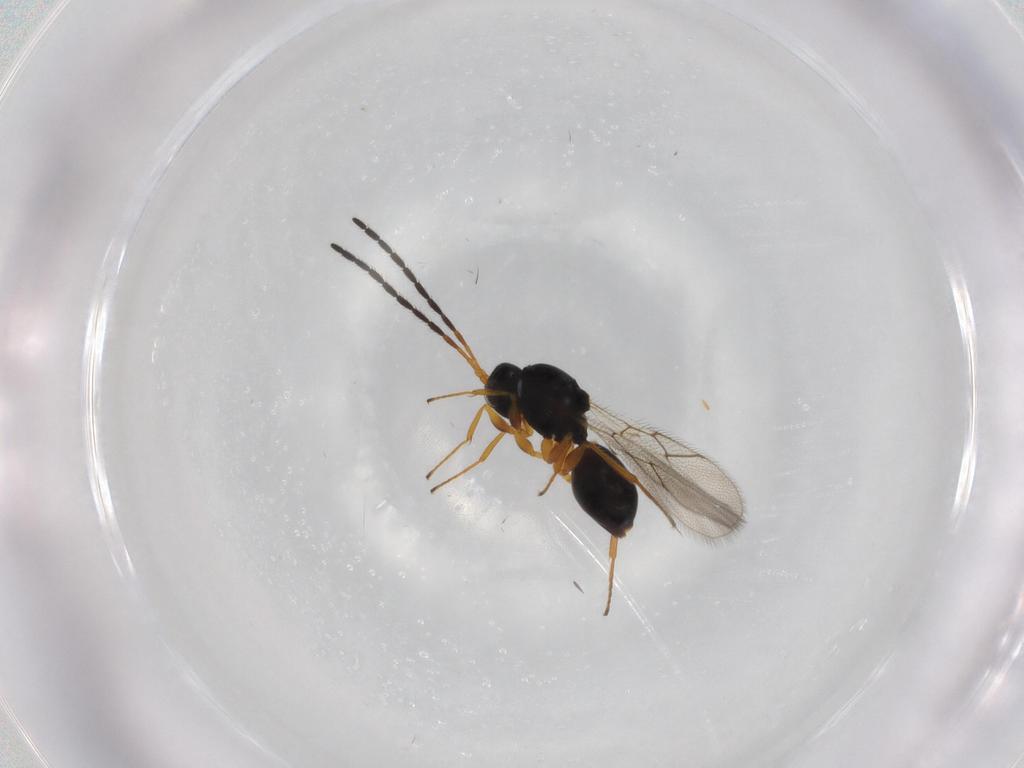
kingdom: Animalia
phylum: Arthropoda
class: Insecta
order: Hymenoptera
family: Figitidae
